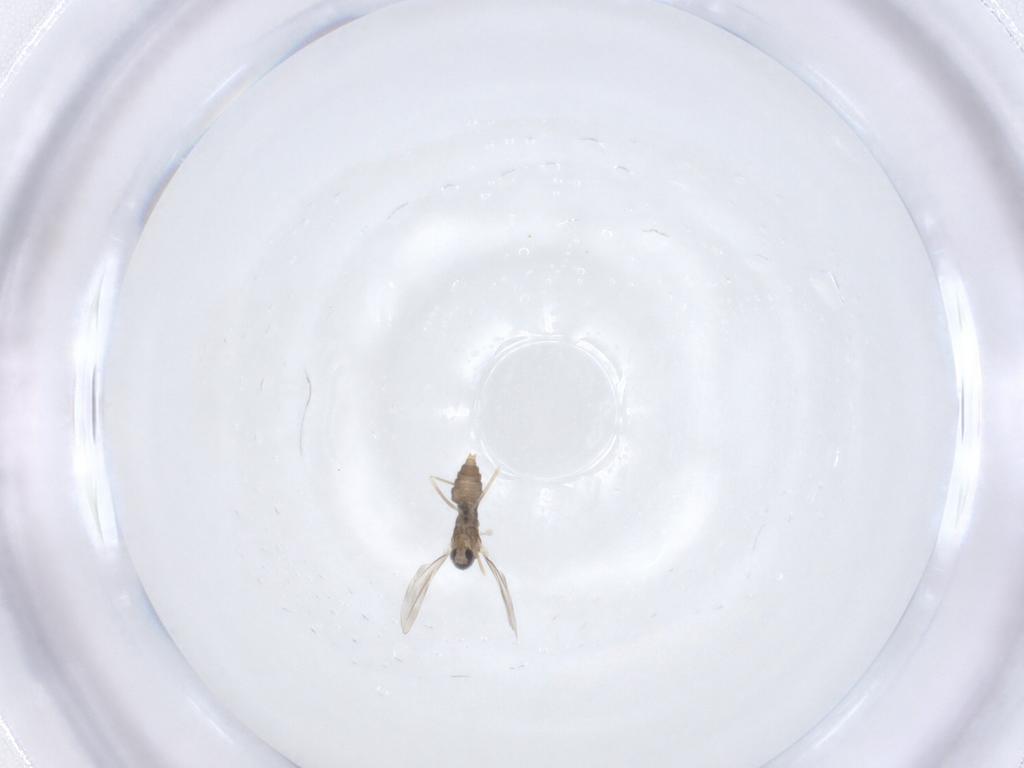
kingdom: Animalia
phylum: Arthropoda
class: Insecta
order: Diptera
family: Cecidomyiidae
